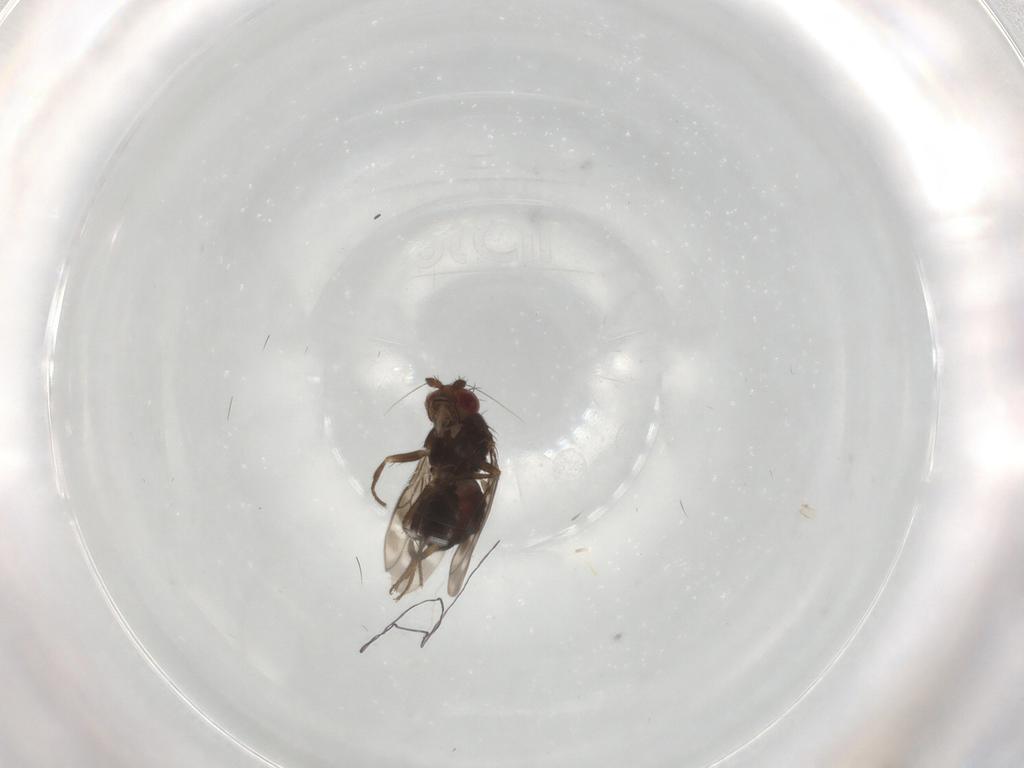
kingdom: Animalia
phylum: Arthropoda
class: Insecta
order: Diptera
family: Sphaeroceridae
